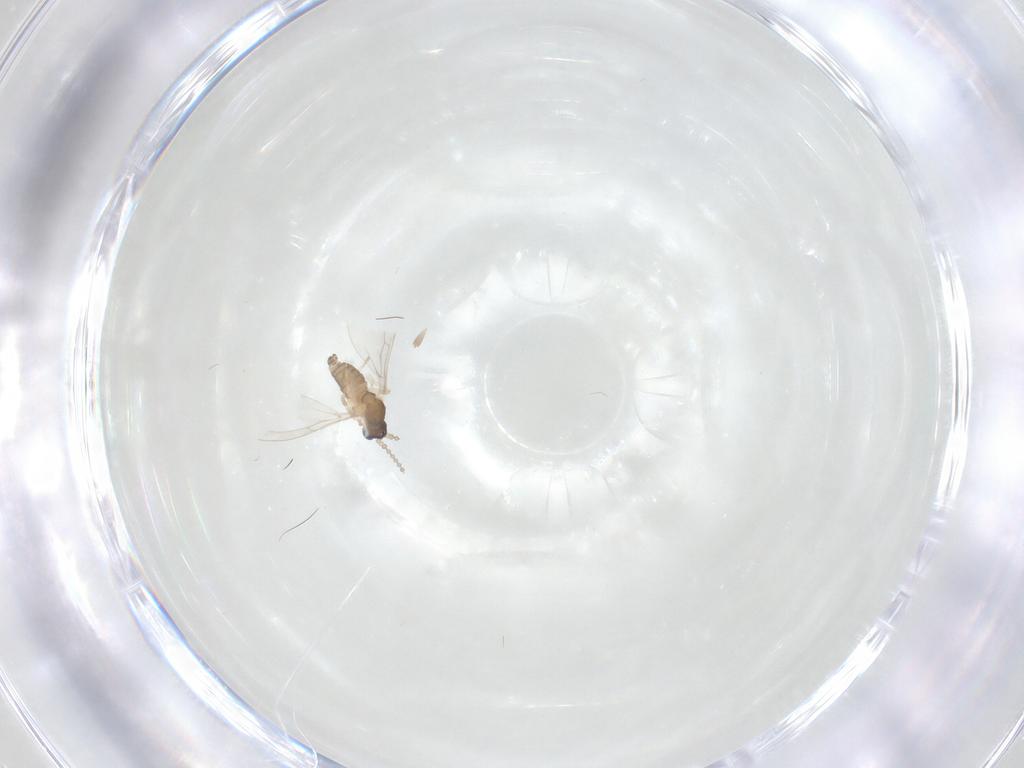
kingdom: Animalia
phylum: Arthropoda
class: Insecta
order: Diptera
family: Cecidomyiidae
